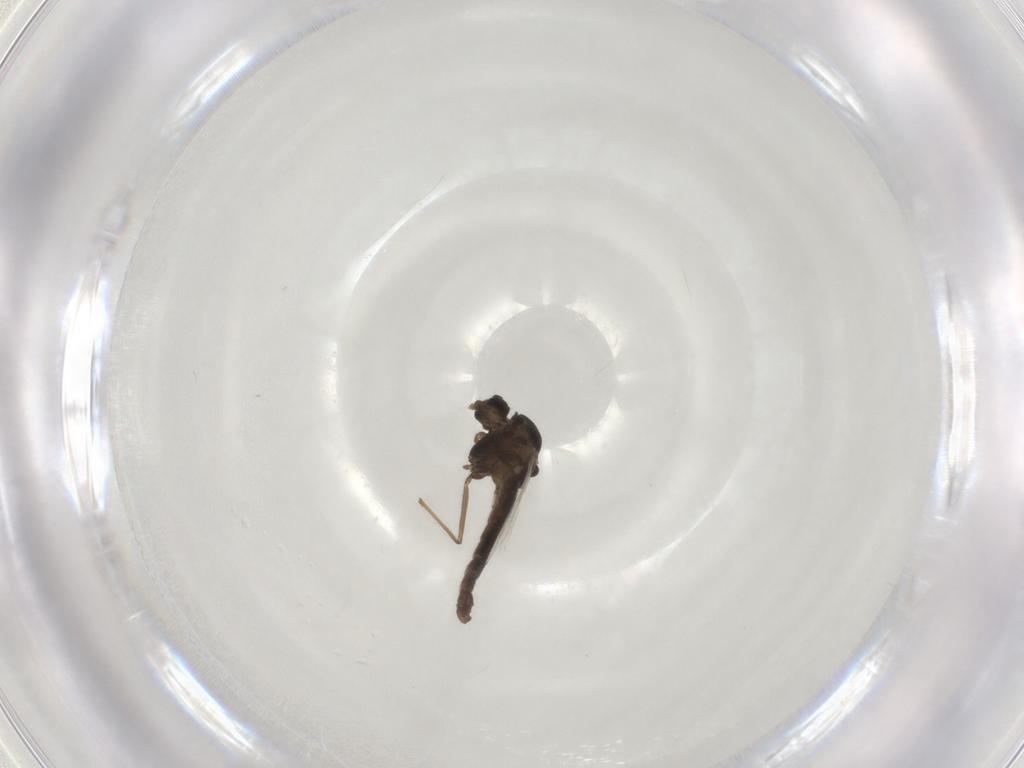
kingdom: Animalia
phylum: Arthropoda
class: Insecta
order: Diptera
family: Chironomidae
